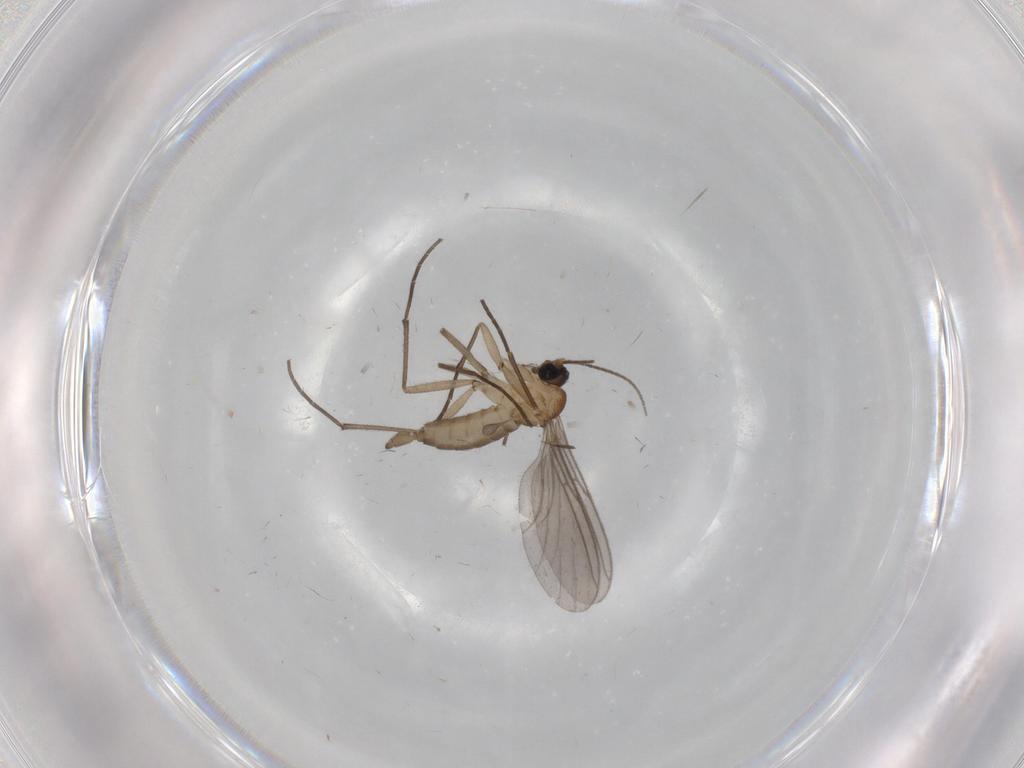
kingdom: Animalia
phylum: Arthropoda
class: Insecta
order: Diptera
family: Sciaridae
